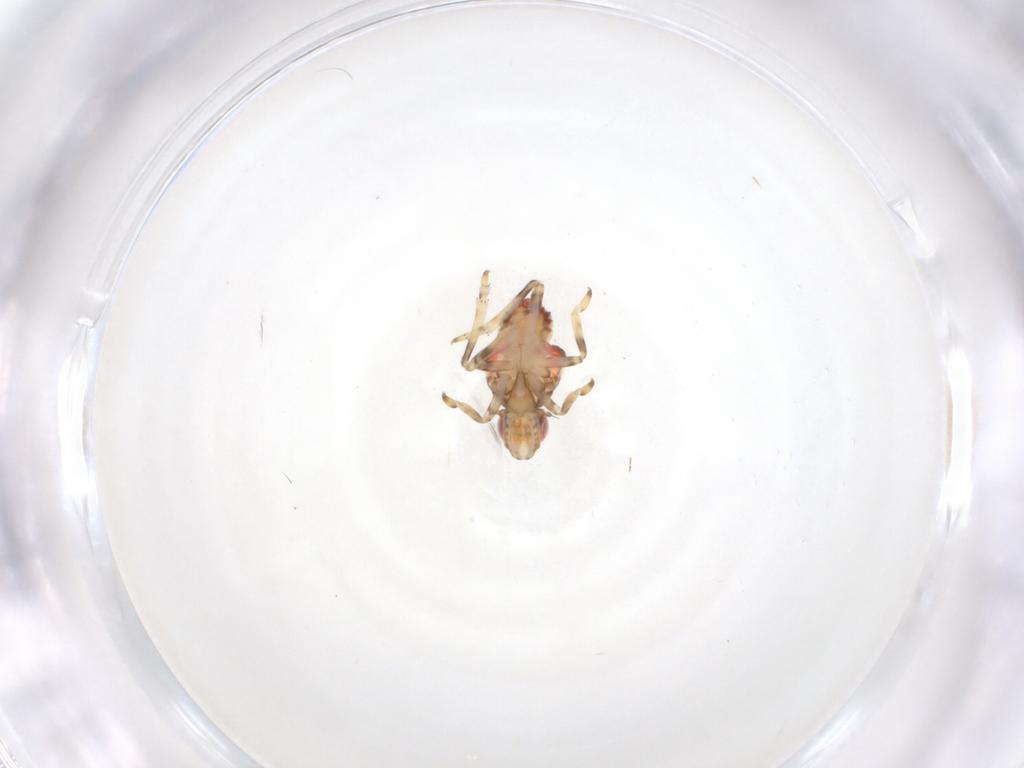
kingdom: Animalia
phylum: Arthropoda
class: Insecta
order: Hemiptera
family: Tropiduchidae
